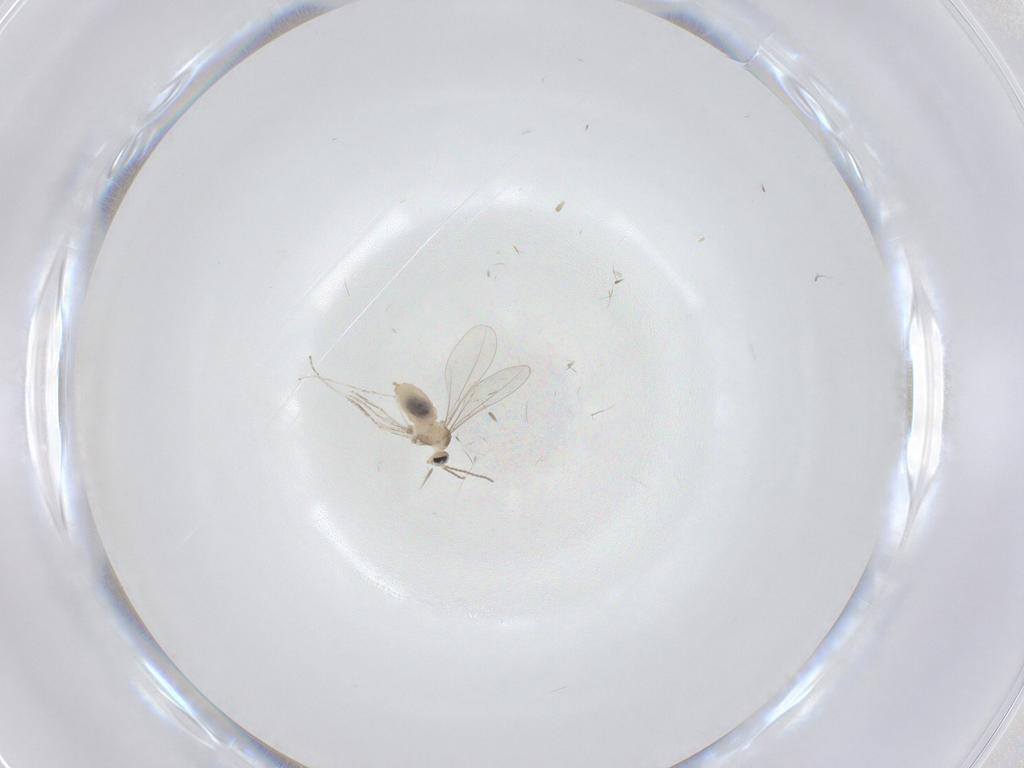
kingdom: Animalia
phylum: Arthropoda
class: Insecta
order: Diptera
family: Cecidomyiidae
